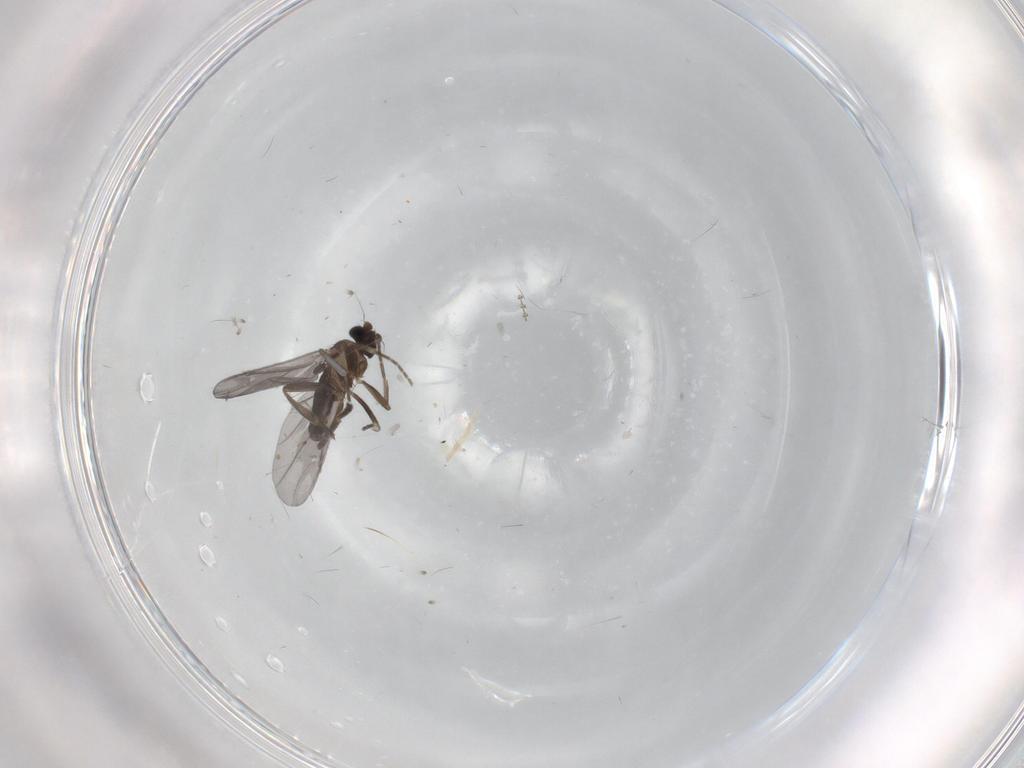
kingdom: Animalia
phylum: Arthropoda
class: Insecta
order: Diptera
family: Phoridae
